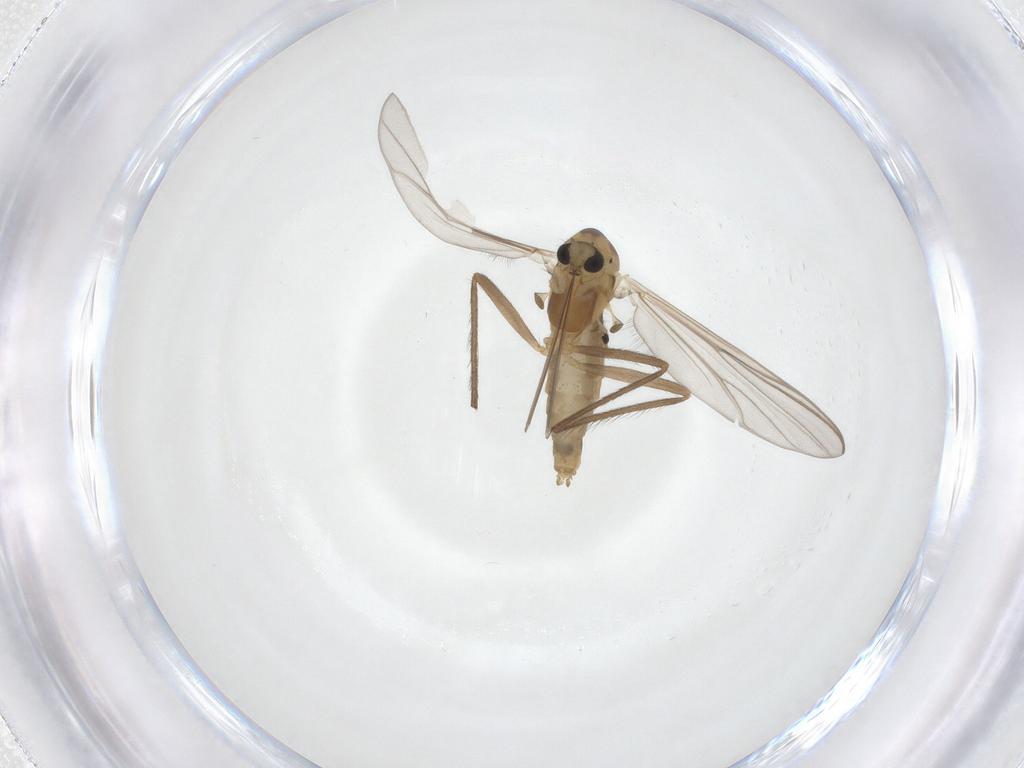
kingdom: Animalia
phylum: Arthropoda
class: Insecta
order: Diptera
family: Chironomidae
